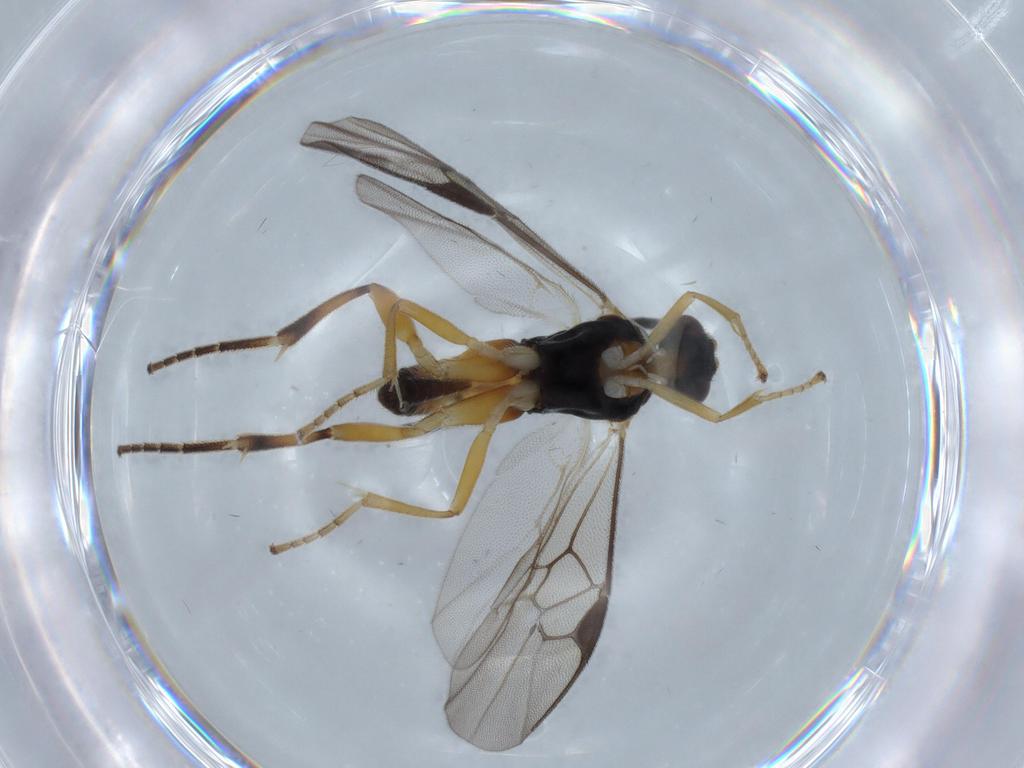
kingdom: Animalia
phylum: Arthropoda
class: Insecta
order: Hymenoptera
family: Braconidae
